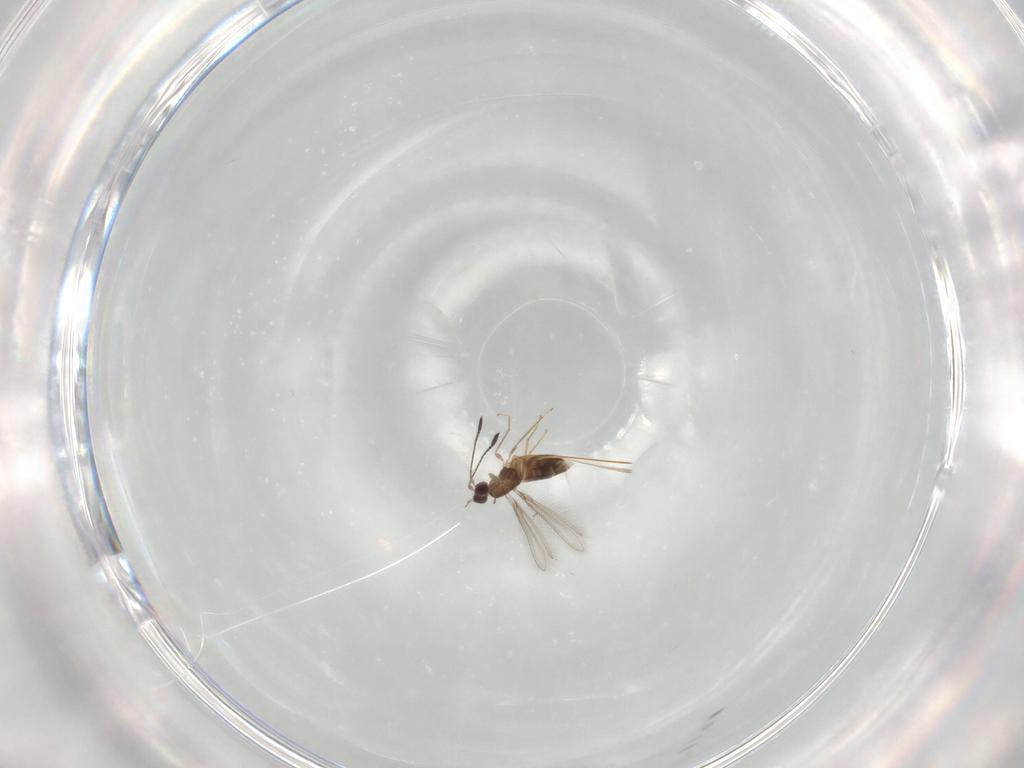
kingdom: Animalia
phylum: Arthropoda
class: Insecta
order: Hymenoptera
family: Mymaridae
